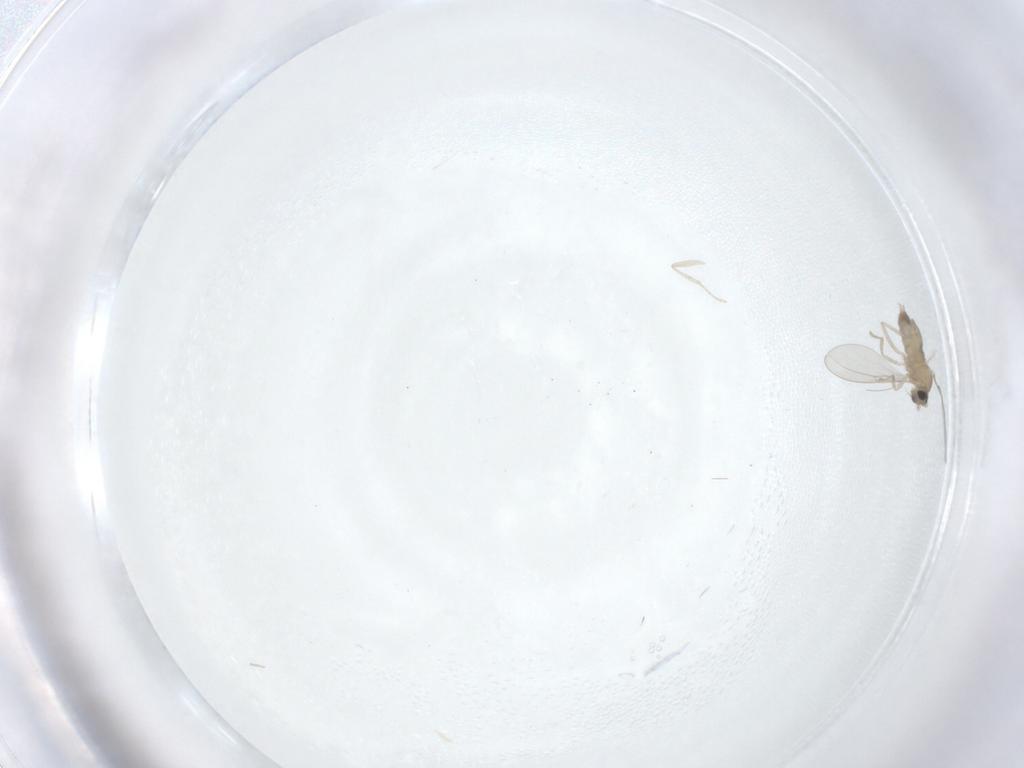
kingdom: Animalia
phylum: Arthropoda
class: Insecta
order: Diptera
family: Cecidomyiidae
